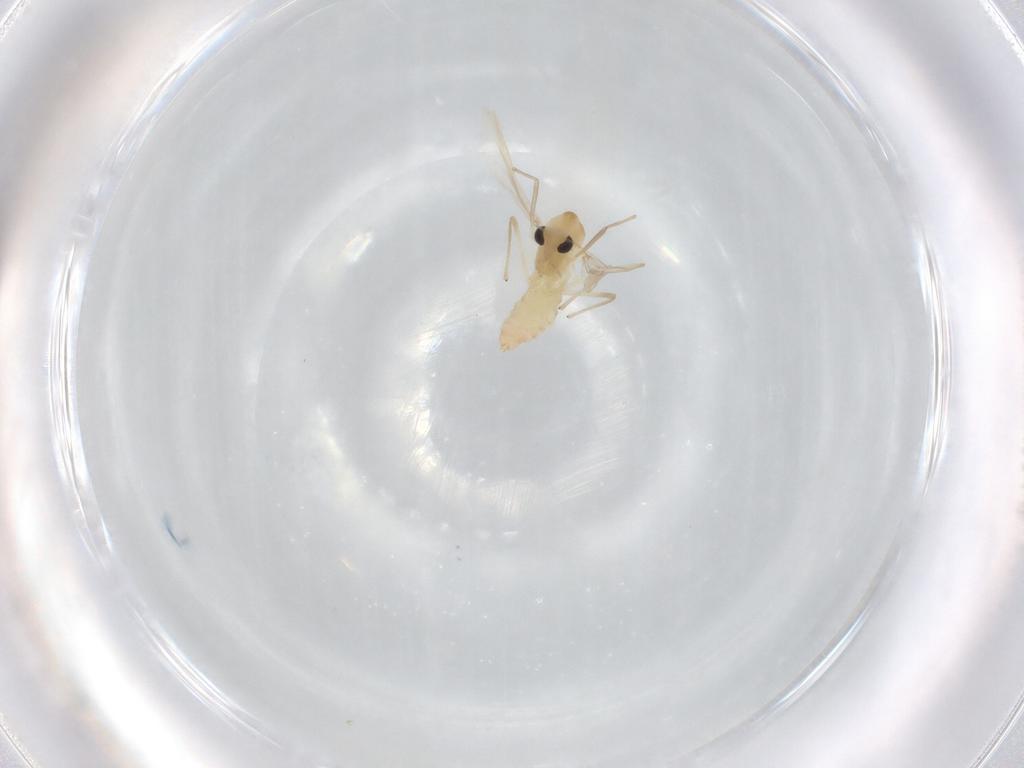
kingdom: Animalia
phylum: Arthropoda
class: Insecta
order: Diptera
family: Chironomidae
